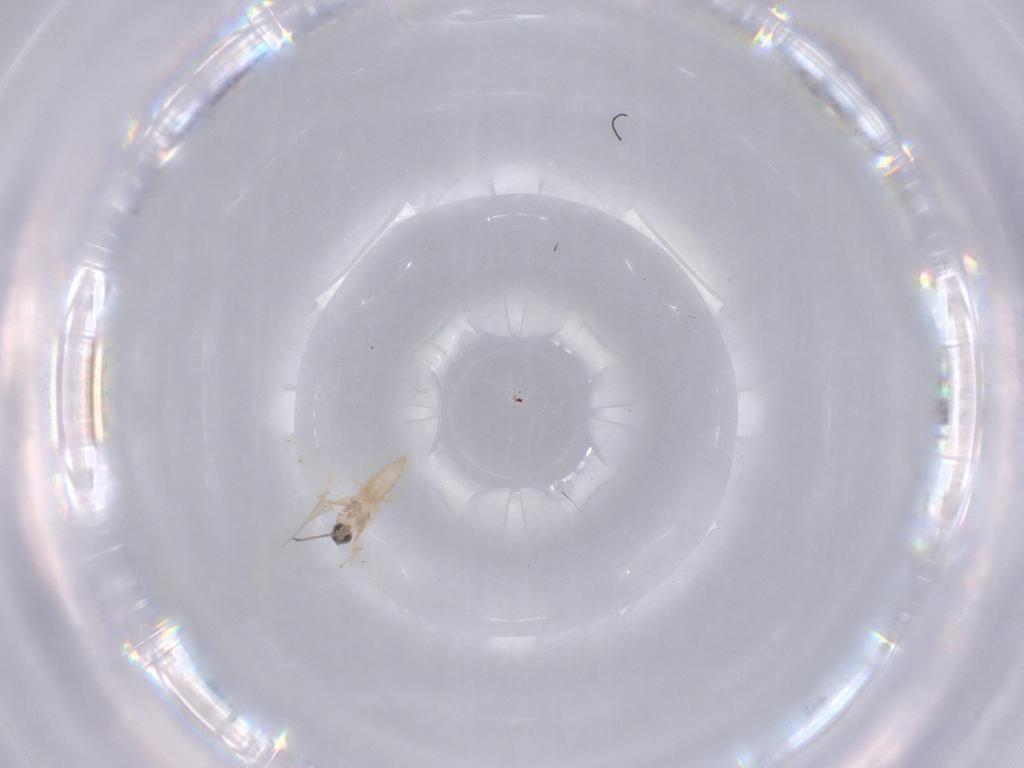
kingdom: Animalia
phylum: Arthropoda
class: Insecta
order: Diptera
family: Cecidomyiidae
